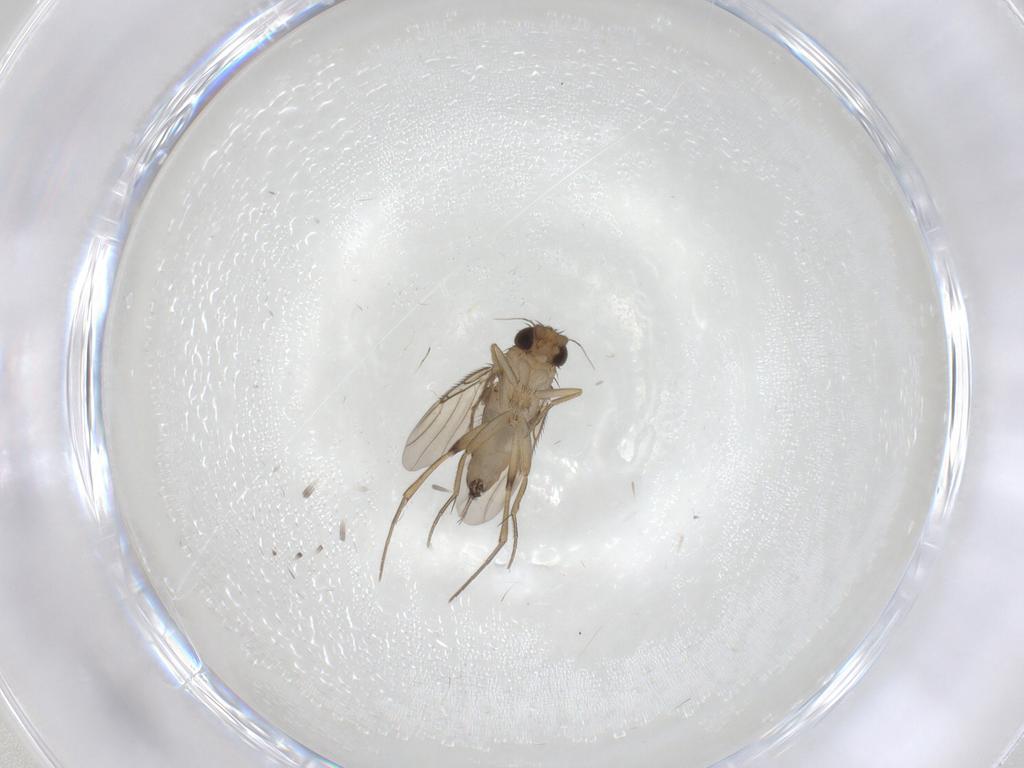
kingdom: Animalia
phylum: Arthropoda
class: Insecta
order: Diptera
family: Phoridae
